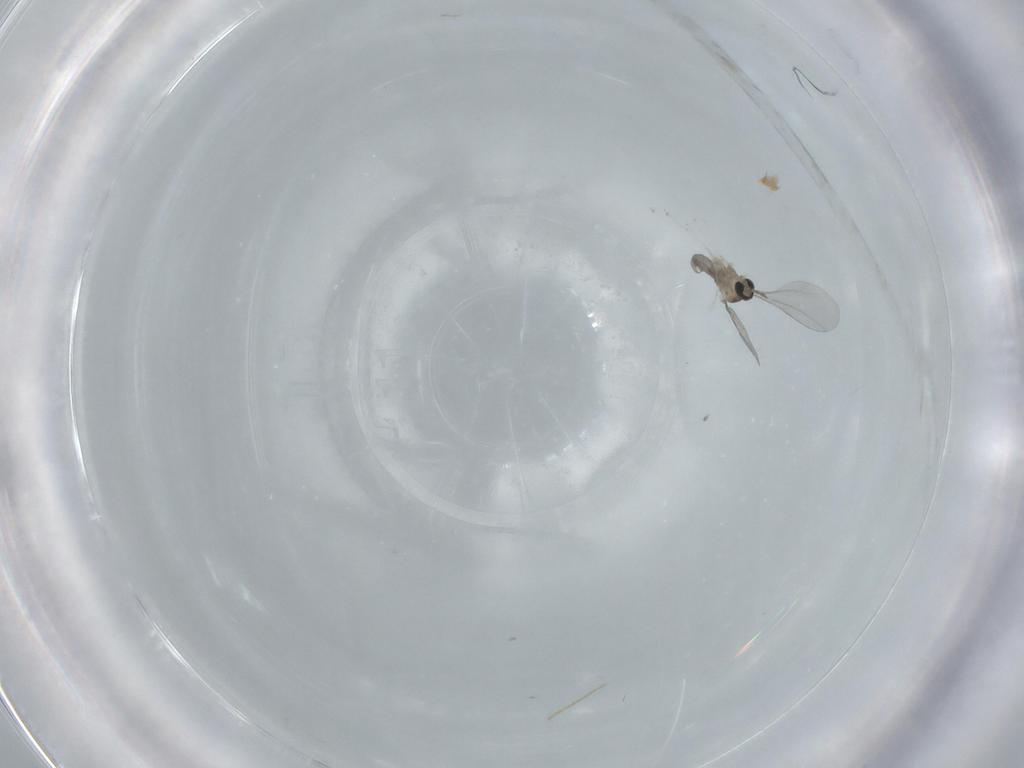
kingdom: Animalia
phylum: Arthropoda
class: Insecta
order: Diptera
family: Cecidomyiidae
